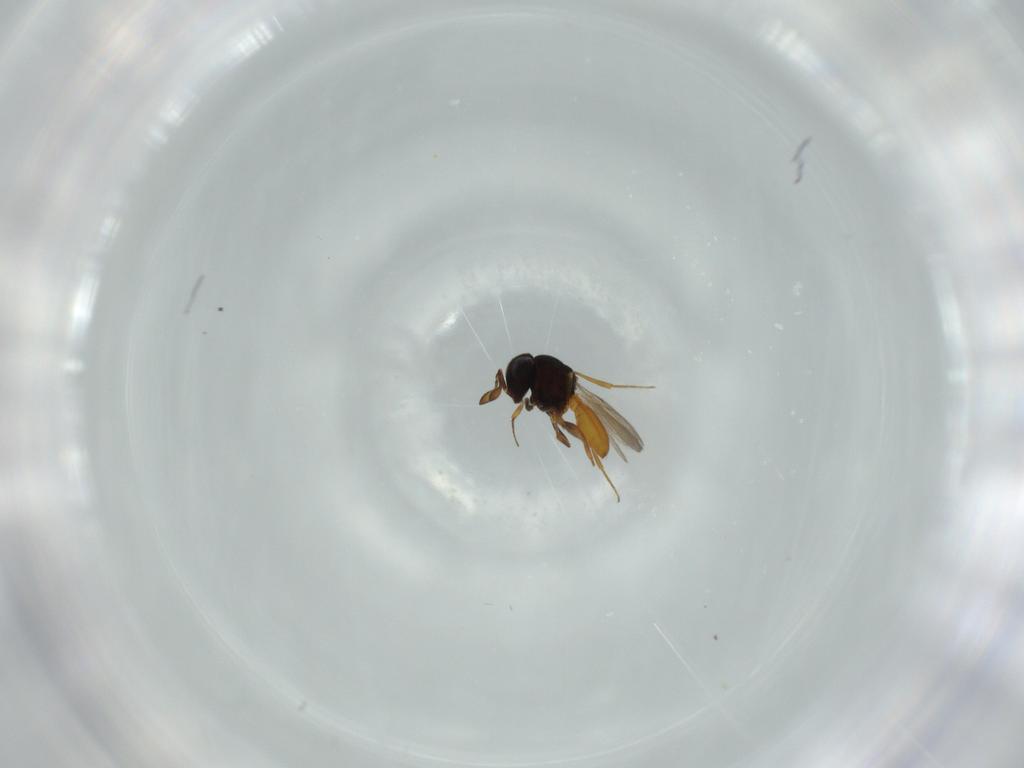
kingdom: Animalia
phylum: Arthropoda
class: Insecta
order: Hymenoptera
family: Scelionidae
